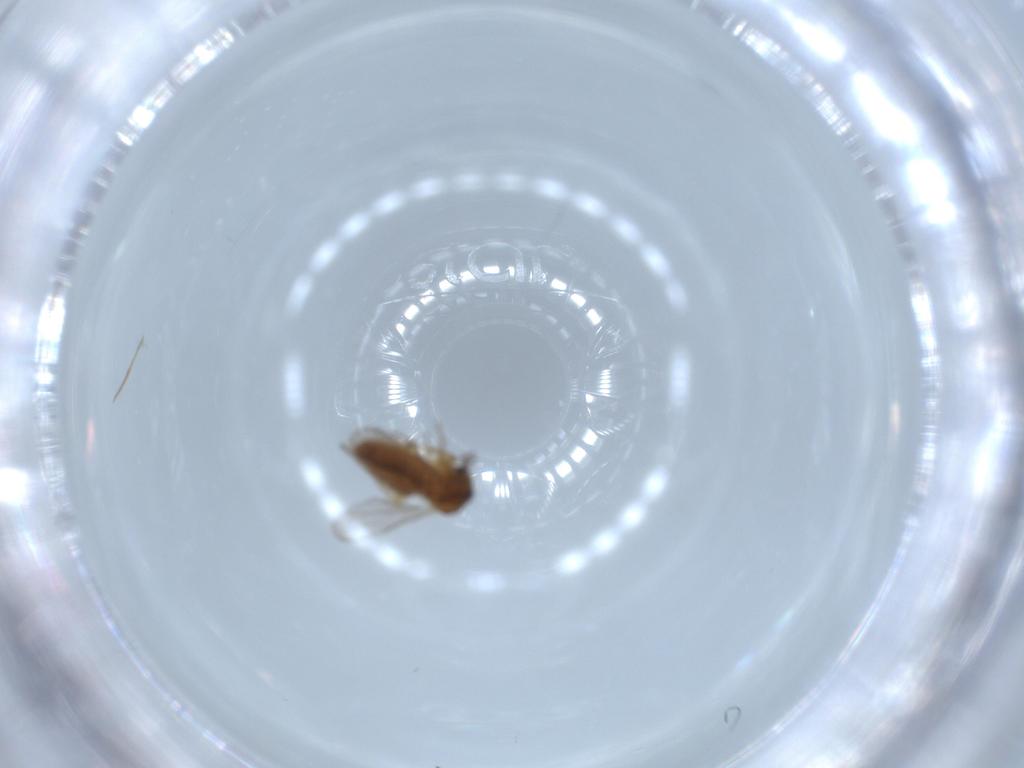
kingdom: Animalia
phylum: Arthropoda
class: Insecta
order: Diptera
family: Ceratopogonidae
